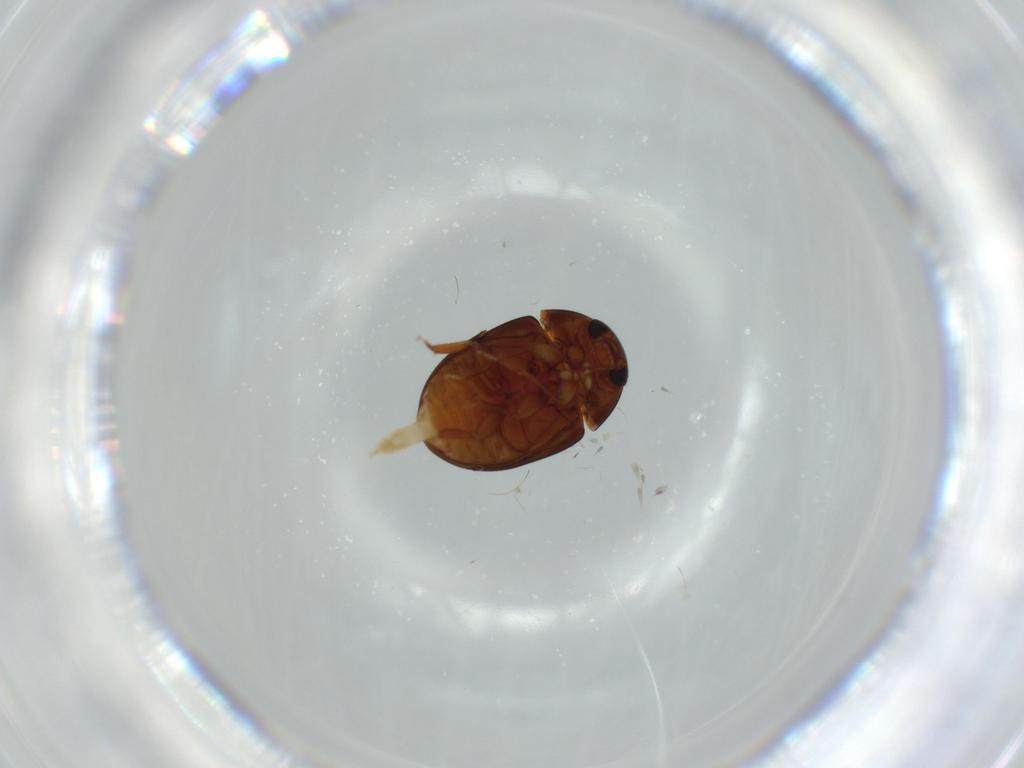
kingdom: Animalia
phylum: Arthropoda
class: Insecta
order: Coleoptera
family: Phalacridae
